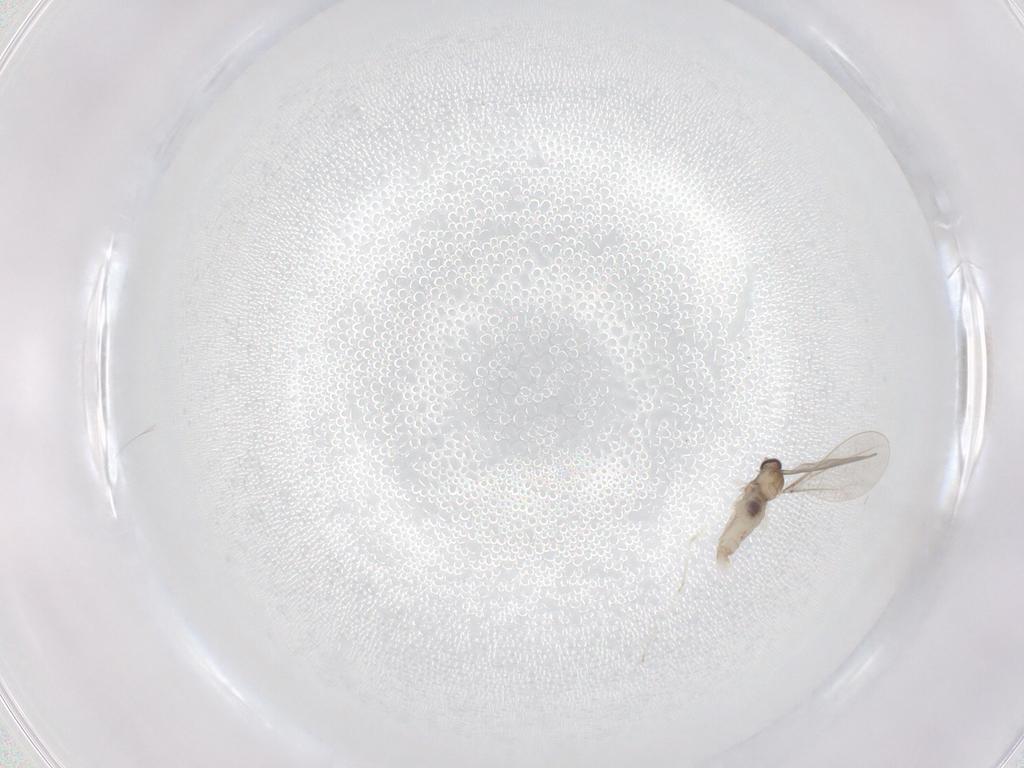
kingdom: Animalia
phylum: Arthropoda
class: Insecta
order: Diptera
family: Cecidomyiidae
